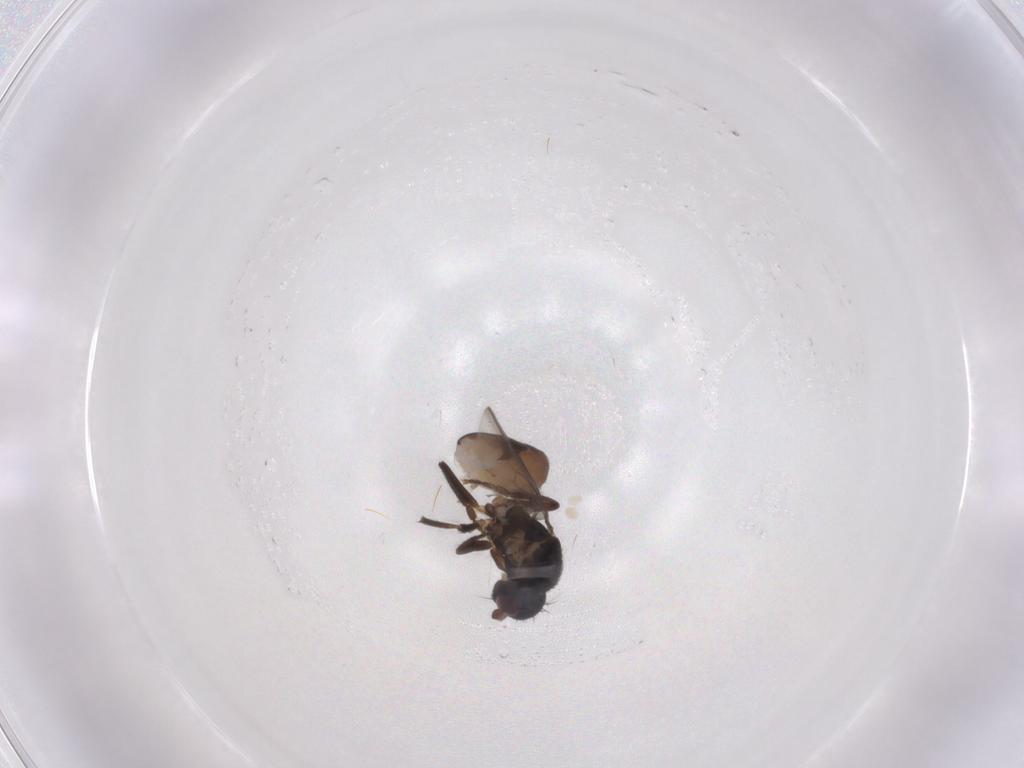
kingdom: Animalia
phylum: Arthropoda
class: Insecta
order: Diptera
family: Sphaeroceridae
